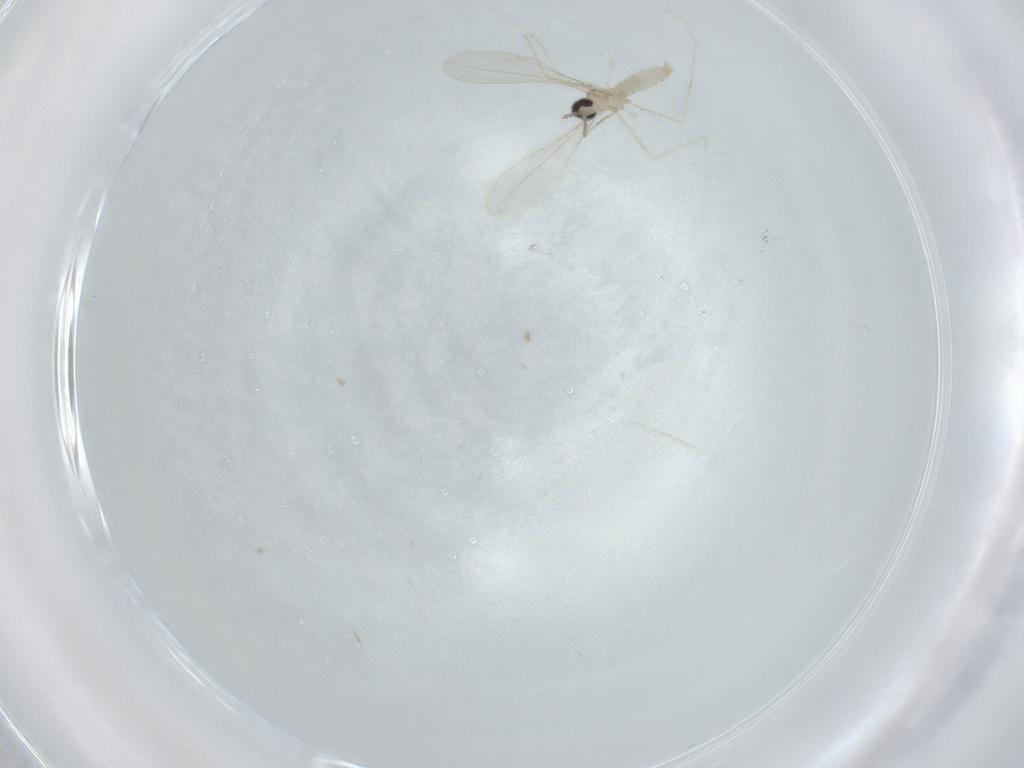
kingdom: Animalia
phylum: Arthropoda
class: Insecta
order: Diptera
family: Cecidomyiidae
